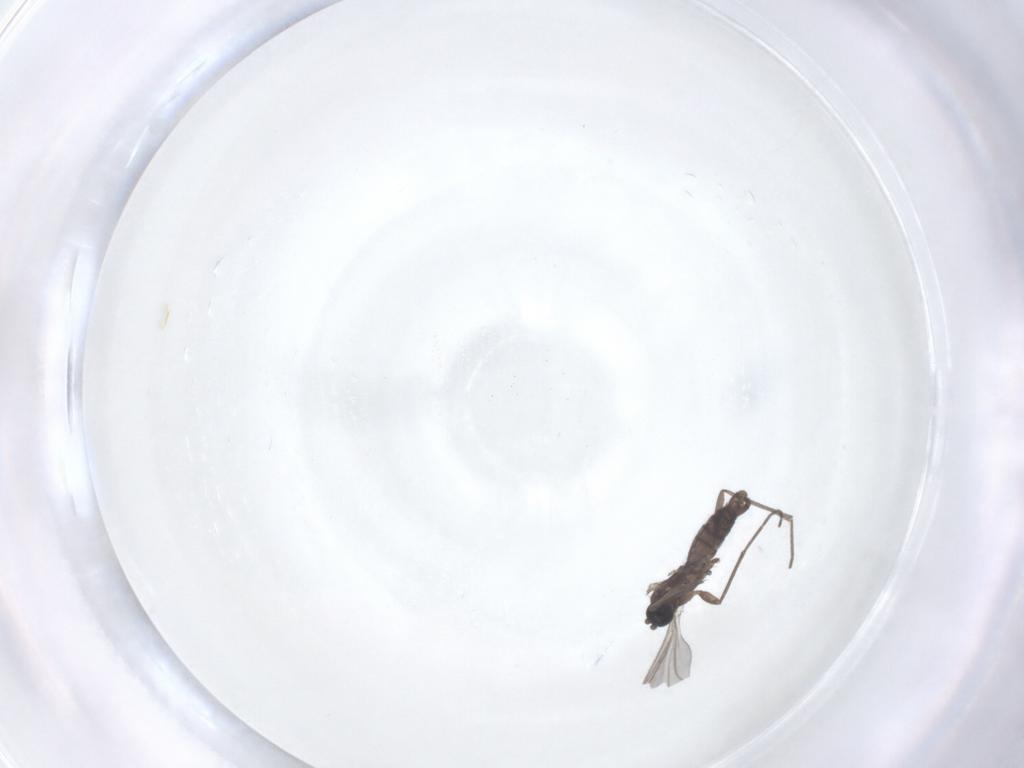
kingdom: Animalia
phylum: Arthropoda
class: Insecta
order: Diptera
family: Sciaridae
